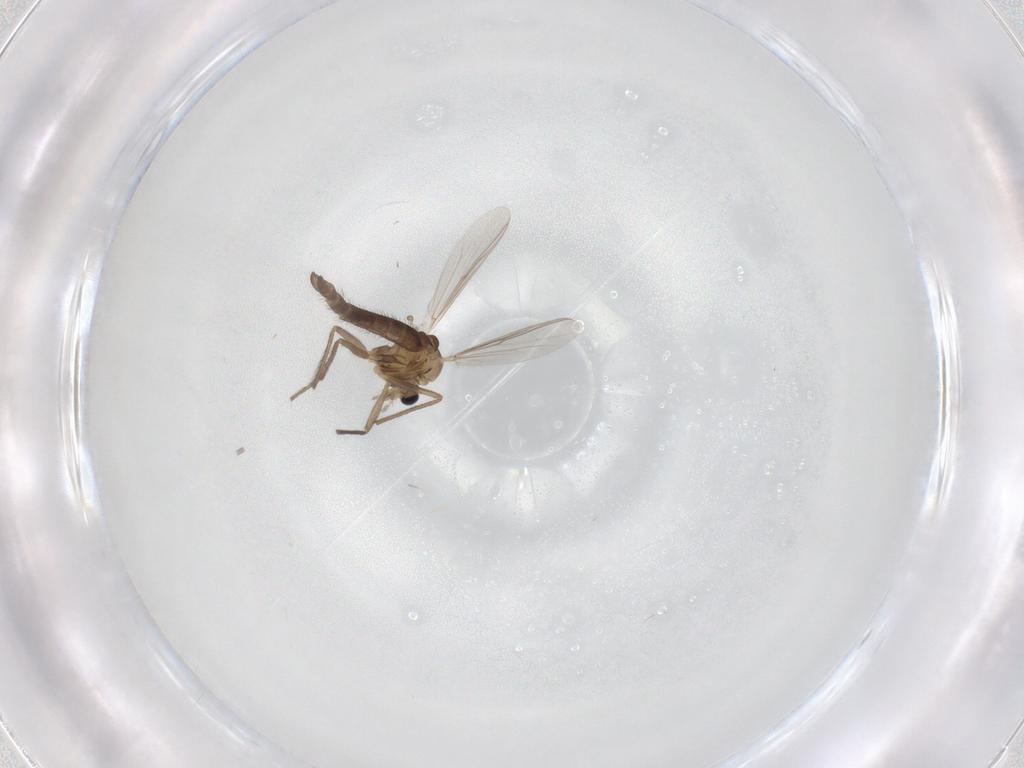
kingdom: Animalia
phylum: Arthropoda
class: Insecta
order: Diptera
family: Chironomidae
